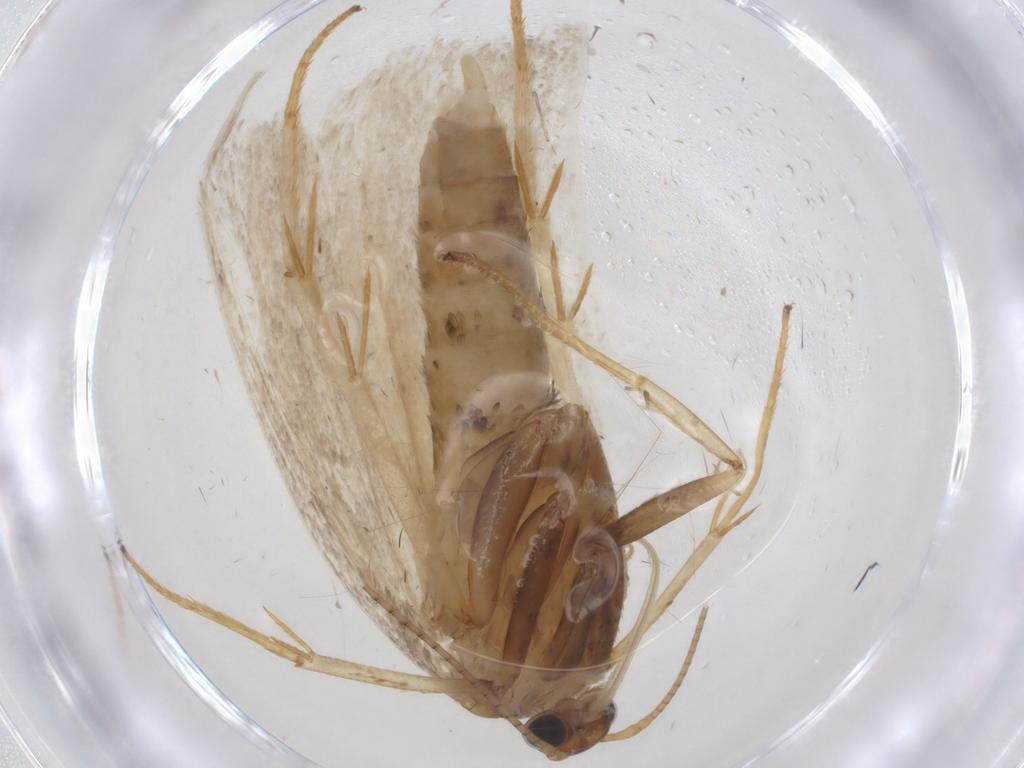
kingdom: Animalia
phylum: Arthropoda
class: Insecta
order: Lepidoptera
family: Depressariidae
